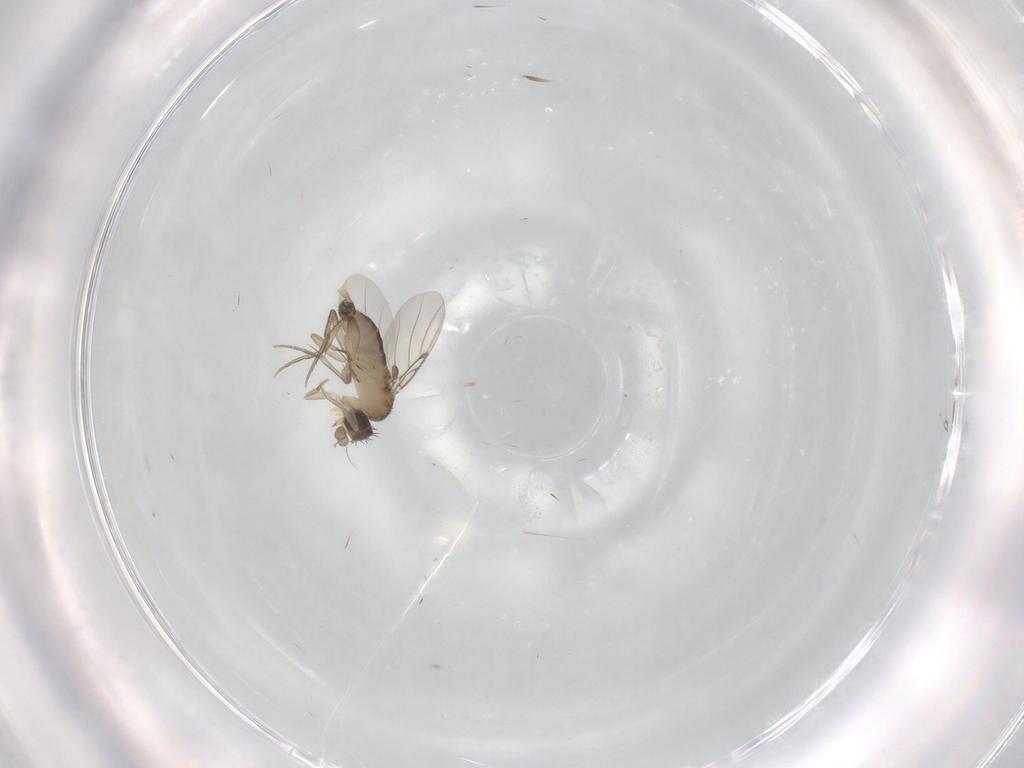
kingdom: Animalia
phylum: Arthropoda
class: Insecta
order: Diptera
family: Phoridae
